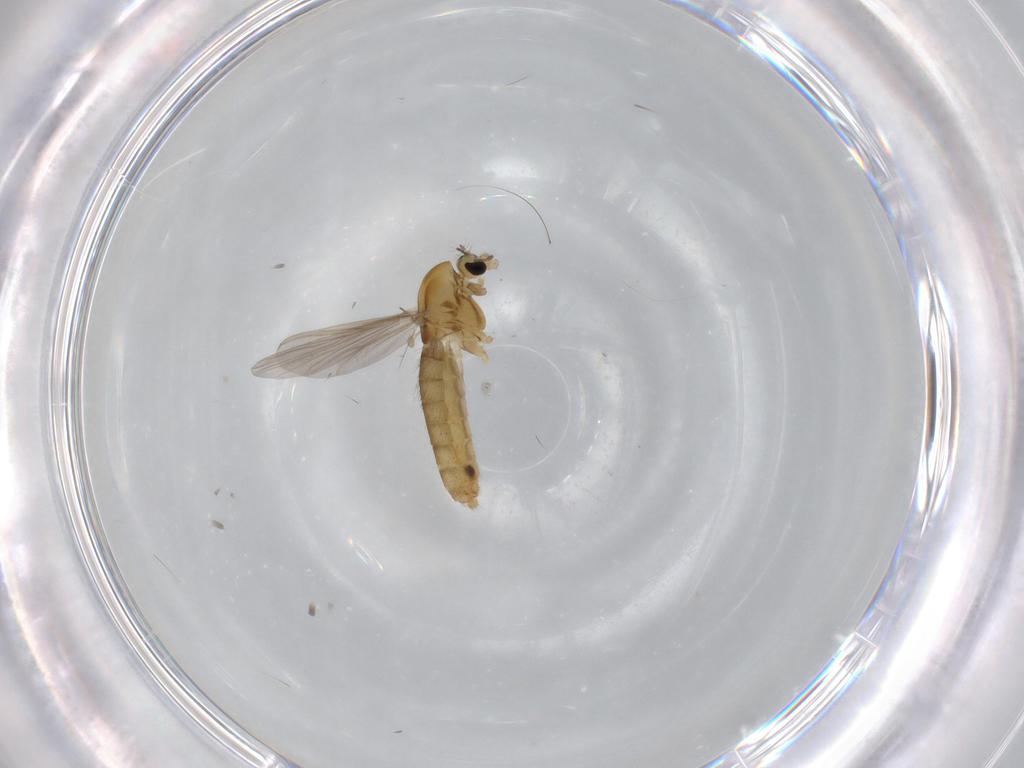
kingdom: Animalia
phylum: Arthropoda
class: Insecta
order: Diptera
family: Chironomidae
